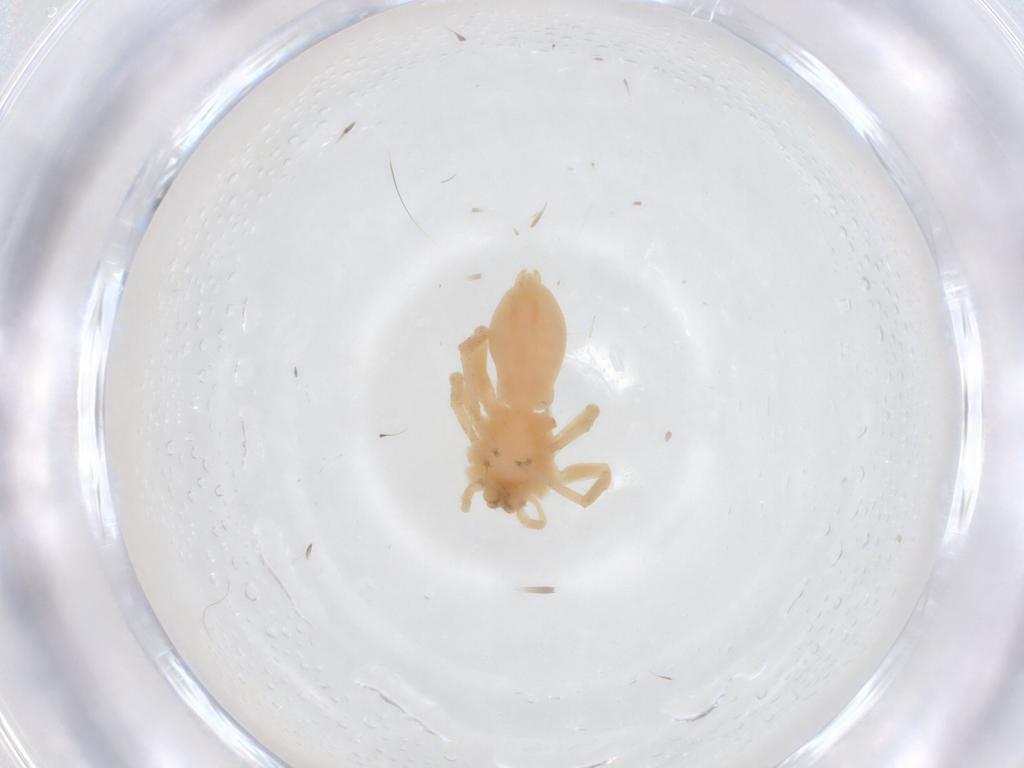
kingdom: Animalia
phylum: Arthropoda
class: Arachnida
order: Araneae
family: Anyphaenidae
